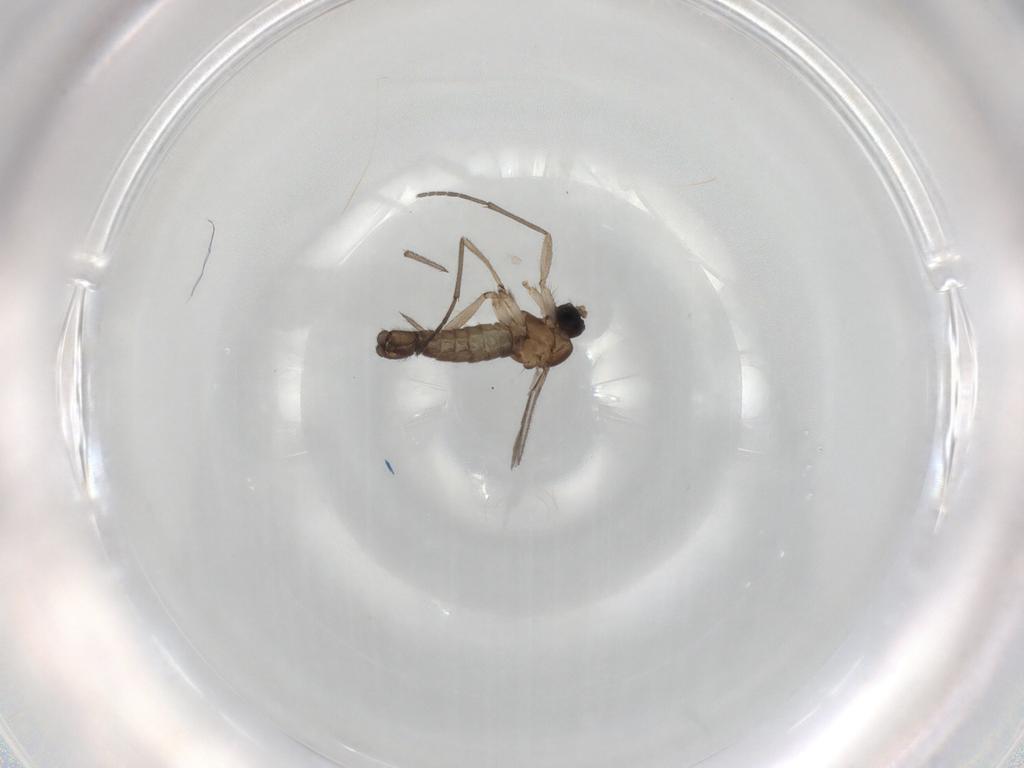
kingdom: Animalia
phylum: Arthropoda
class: Insecta
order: Diptera
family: Sciaridae
